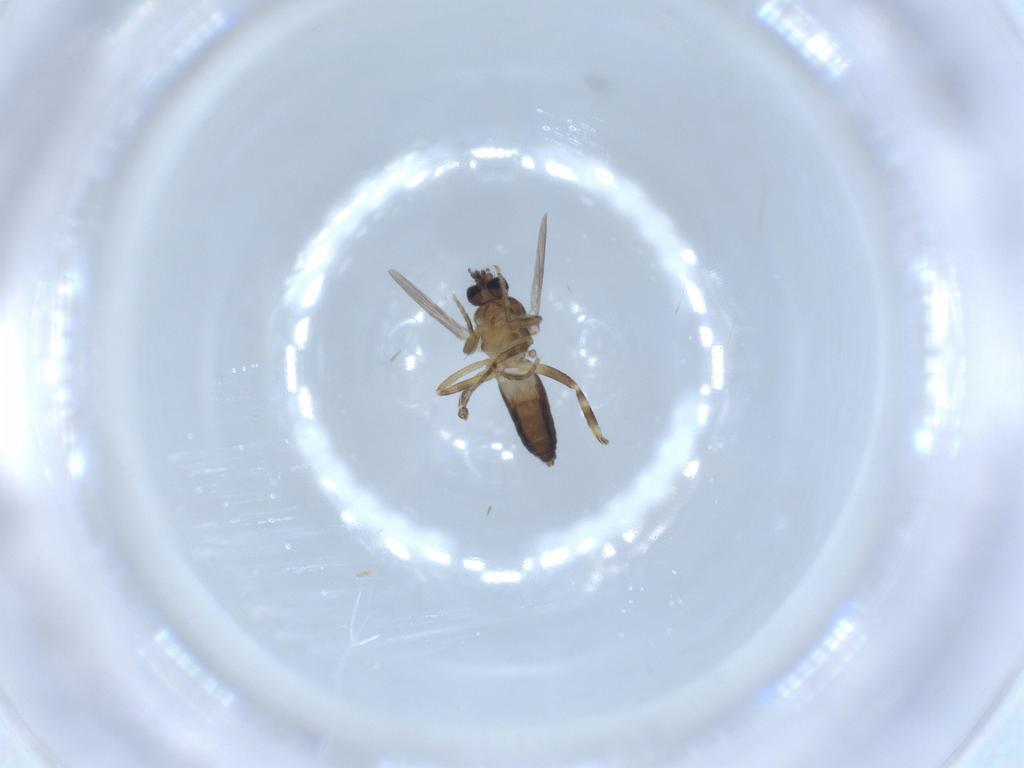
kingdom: Animalia
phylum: Arthropoda
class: Insecta
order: Diptera
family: Ceratopogonidae
